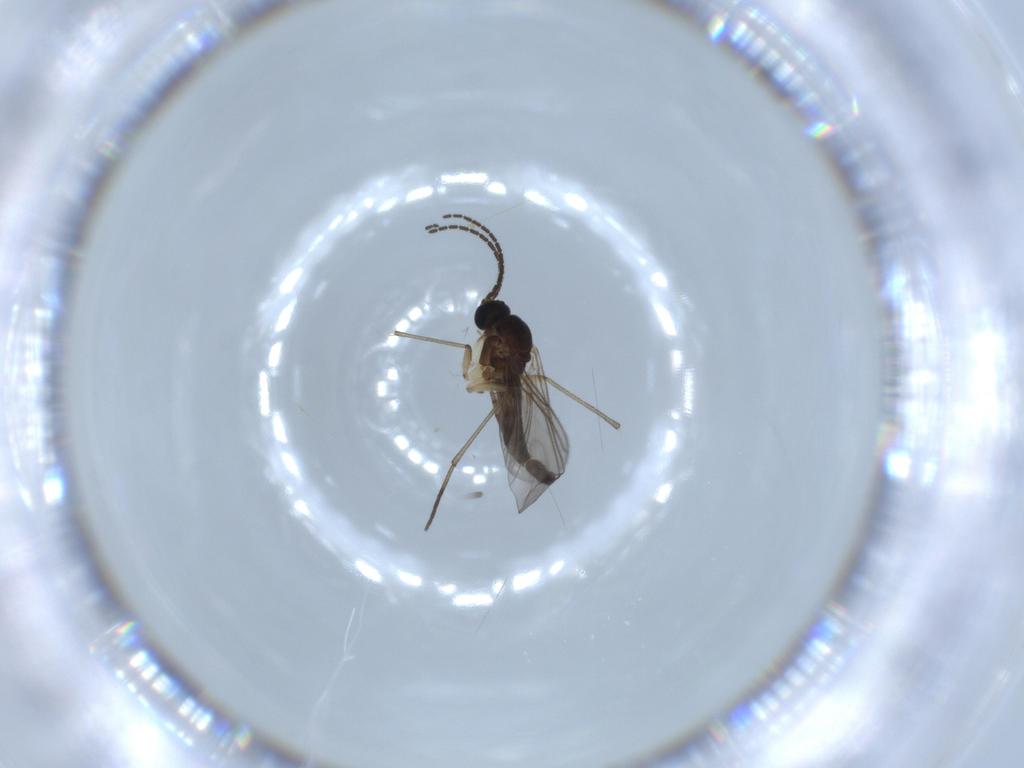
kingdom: Animalia
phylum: Arthropoda
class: Insecta
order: Diptera
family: Sciaridae
